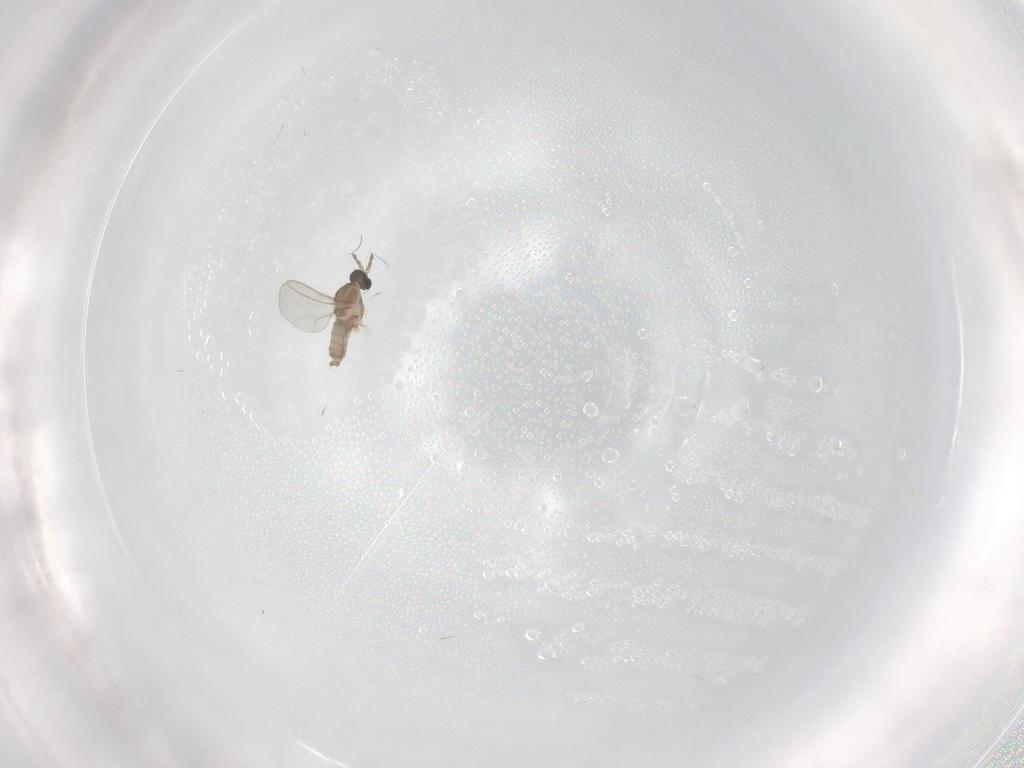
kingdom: Animalia
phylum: Arthropoda
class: Insecta
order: Diptera
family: Cecidomyiidae
